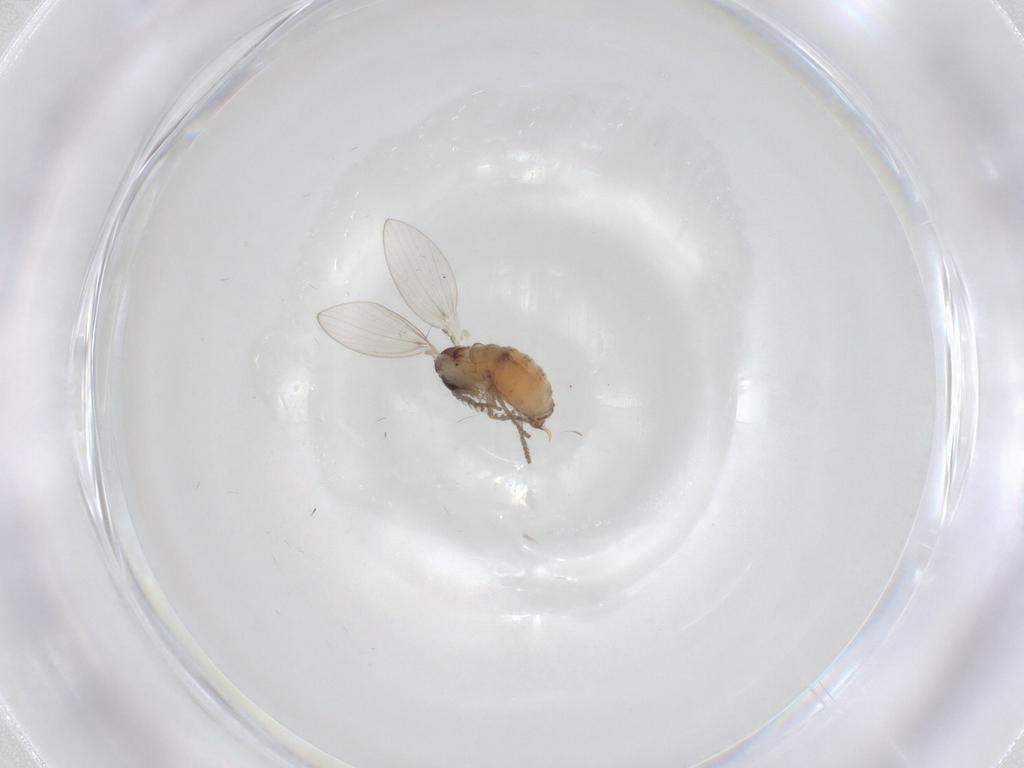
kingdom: Animalia
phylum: Arthropoda
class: Insecta
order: Diptera
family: Psychodidae
